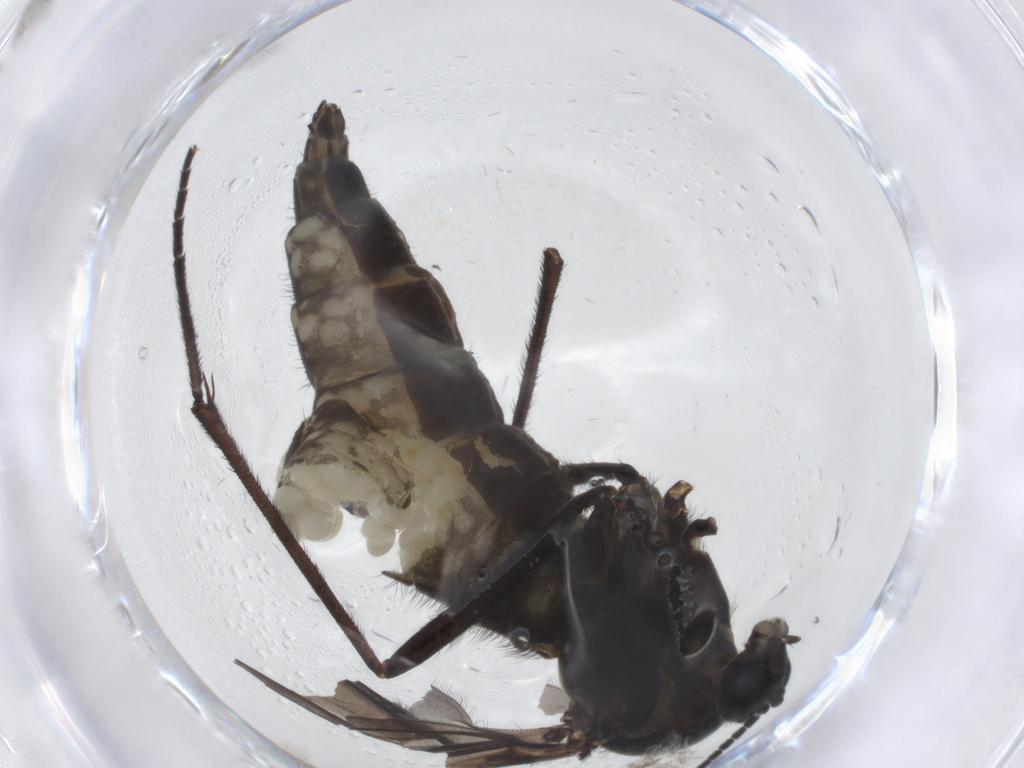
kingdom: Animalia
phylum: Arthropoda
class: Insecta
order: Diptera
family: Sciaridae
